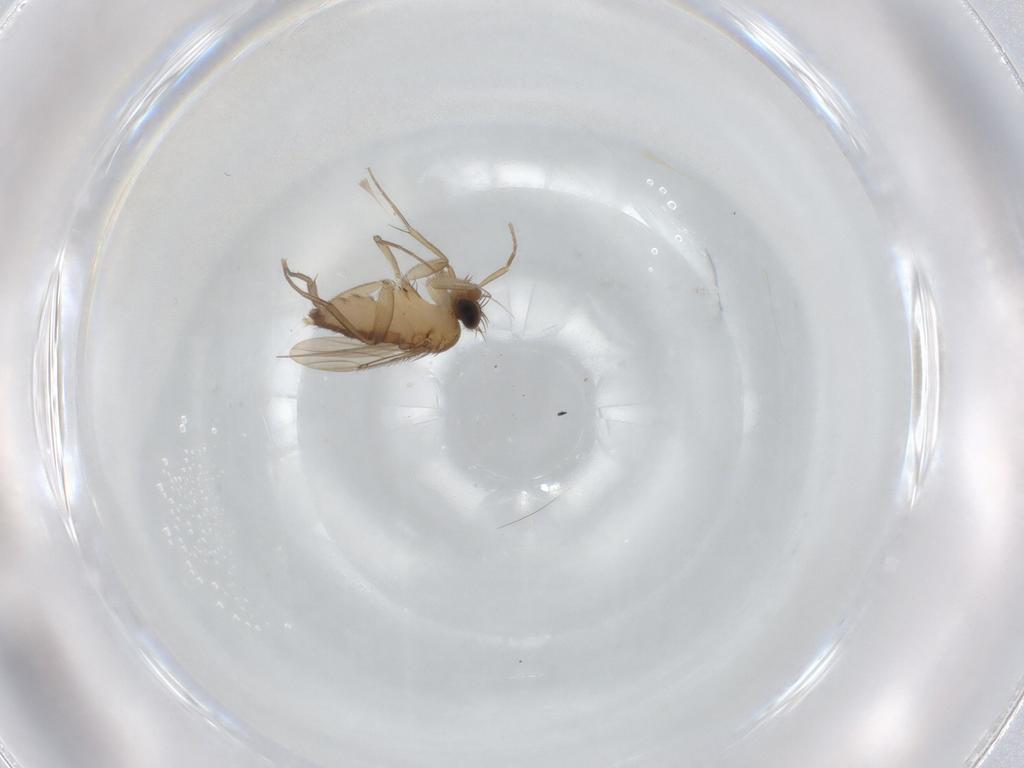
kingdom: Animalia
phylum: Arthropoda
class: Insecta
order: Diptera
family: Phoridae
